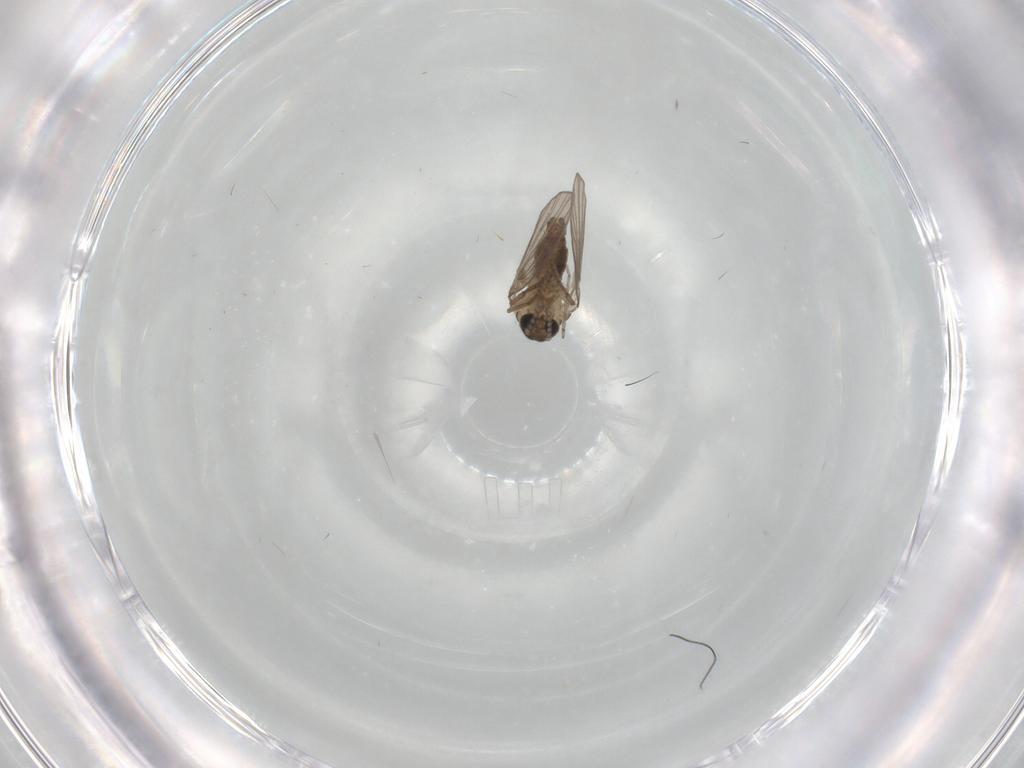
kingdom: Animalia
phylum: Arthropoda
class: Insecta
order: Diptera
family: Psychodidae
